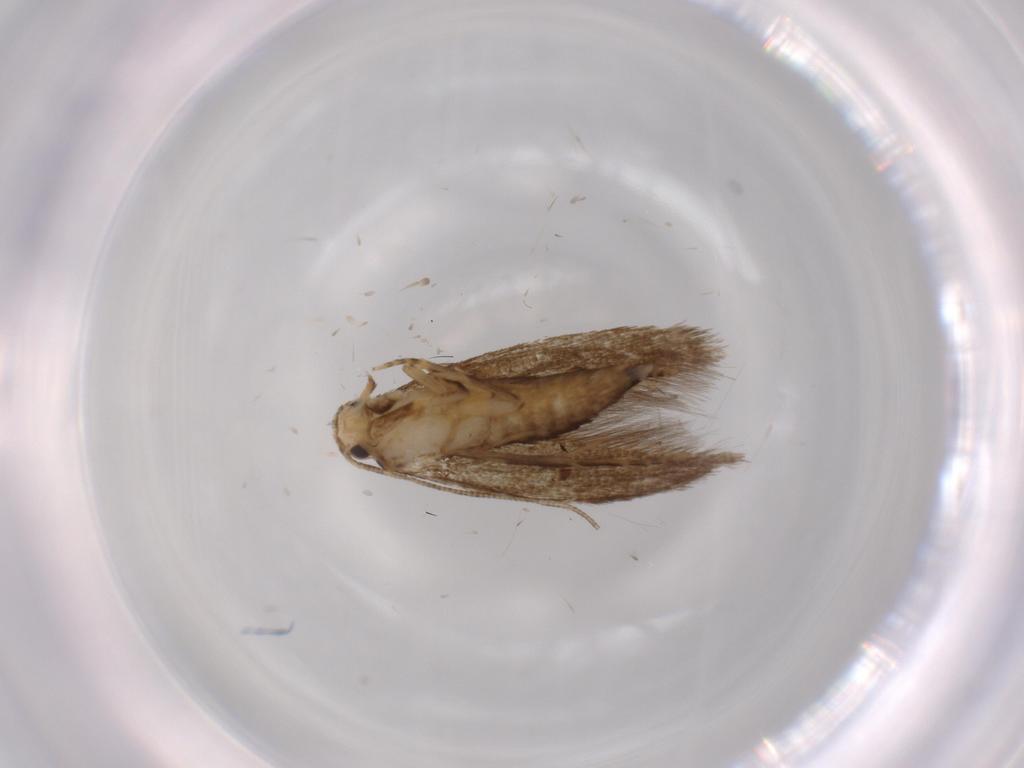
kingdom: Animalia
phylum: Arthropoda
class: Insecta
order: Lepidoptera
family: Tineidae
